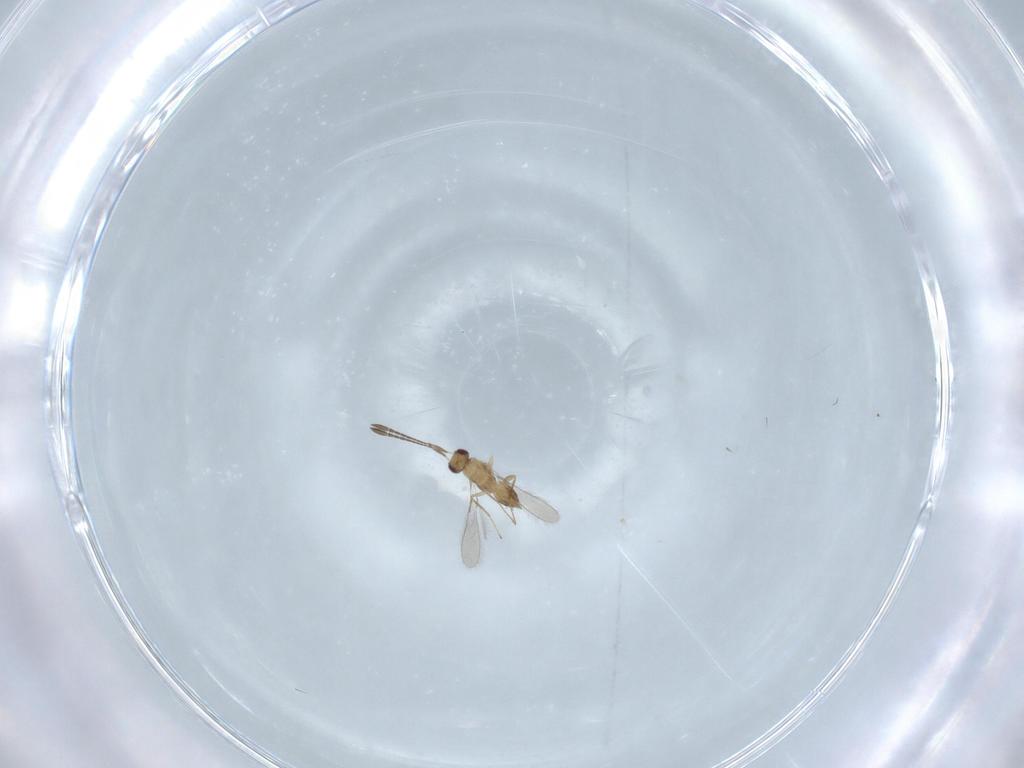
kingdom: Animalia
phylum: Arthropoda
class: Insecta
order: Hymenoptera
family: Mymaridae
